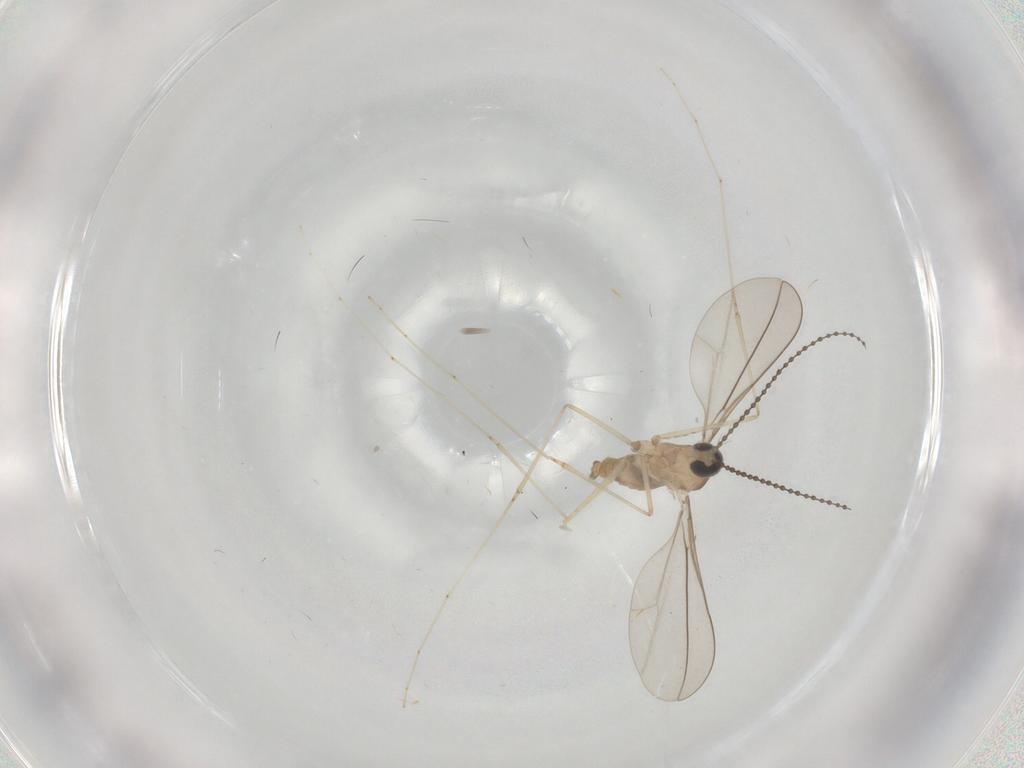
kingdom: Animalia
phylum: Arthropoda
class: Insecta
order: Diptera
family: Cecidomyiidae
